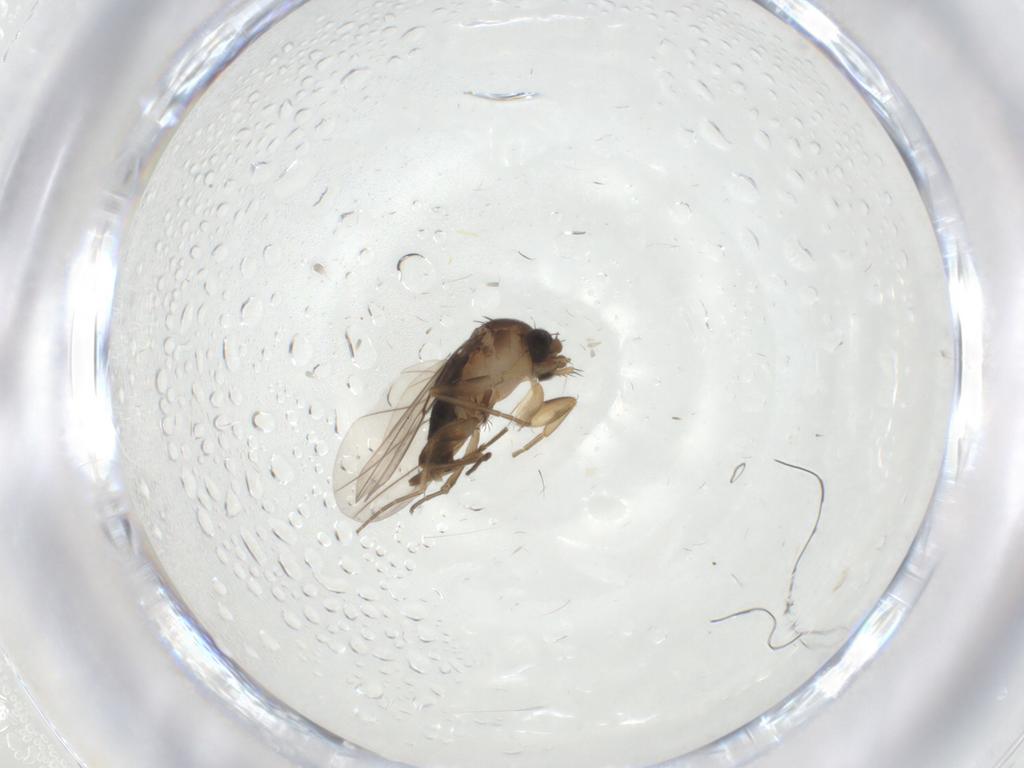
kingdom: Animalia
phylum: Arthropoda
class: Insecta
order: Diptera
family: Phoridae
